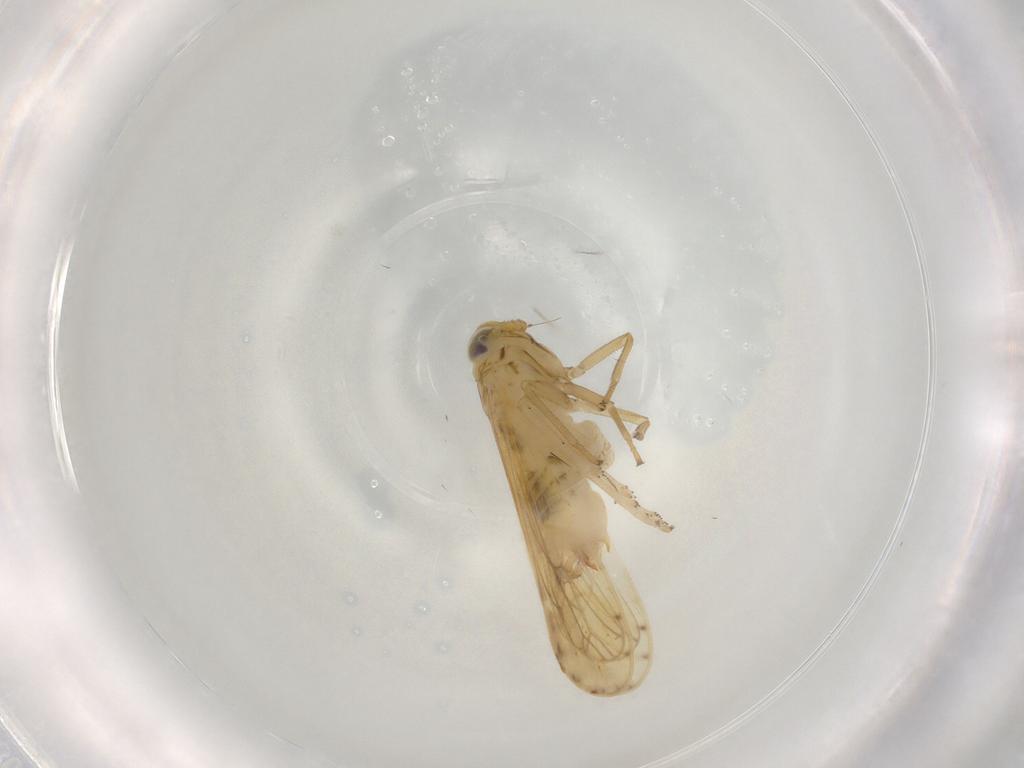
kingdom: Animalia
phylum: Arthropoda
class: Insecta
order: Hemiptera
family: Delphacidae
